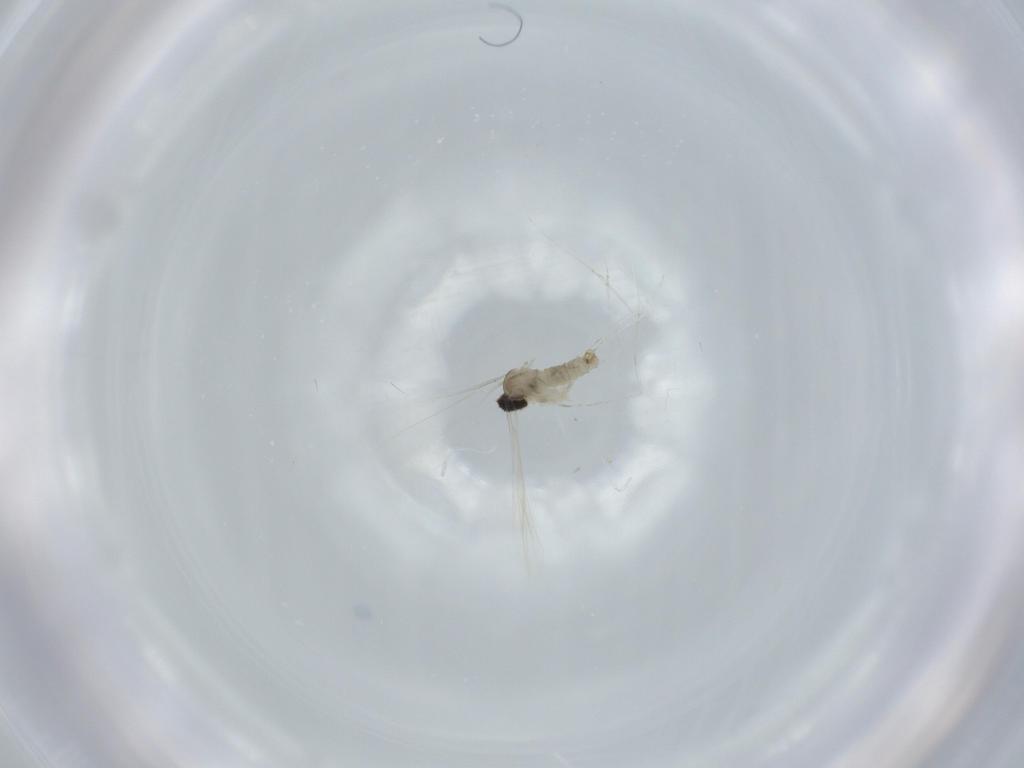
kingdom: Animalia
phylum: Arthropoda
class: Insecta
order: Diptera
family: Cecidomyiidae
